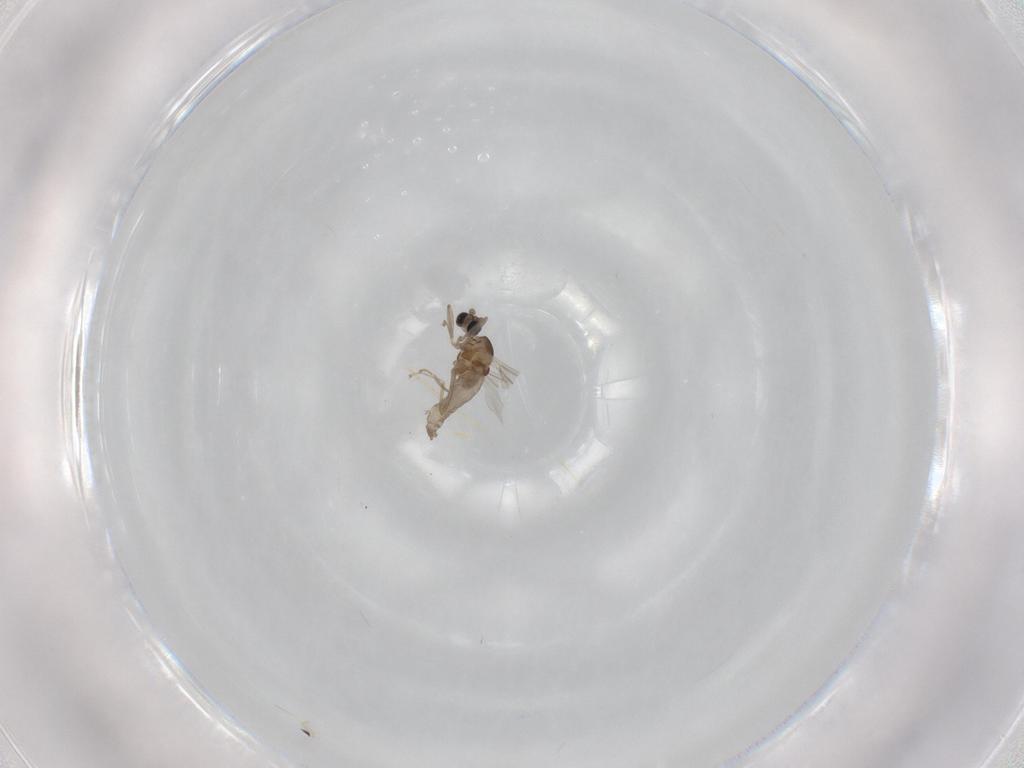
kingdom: Animalia
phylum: Arthropoda
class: Insecta
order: Diptera
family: Cecidomyiidae
